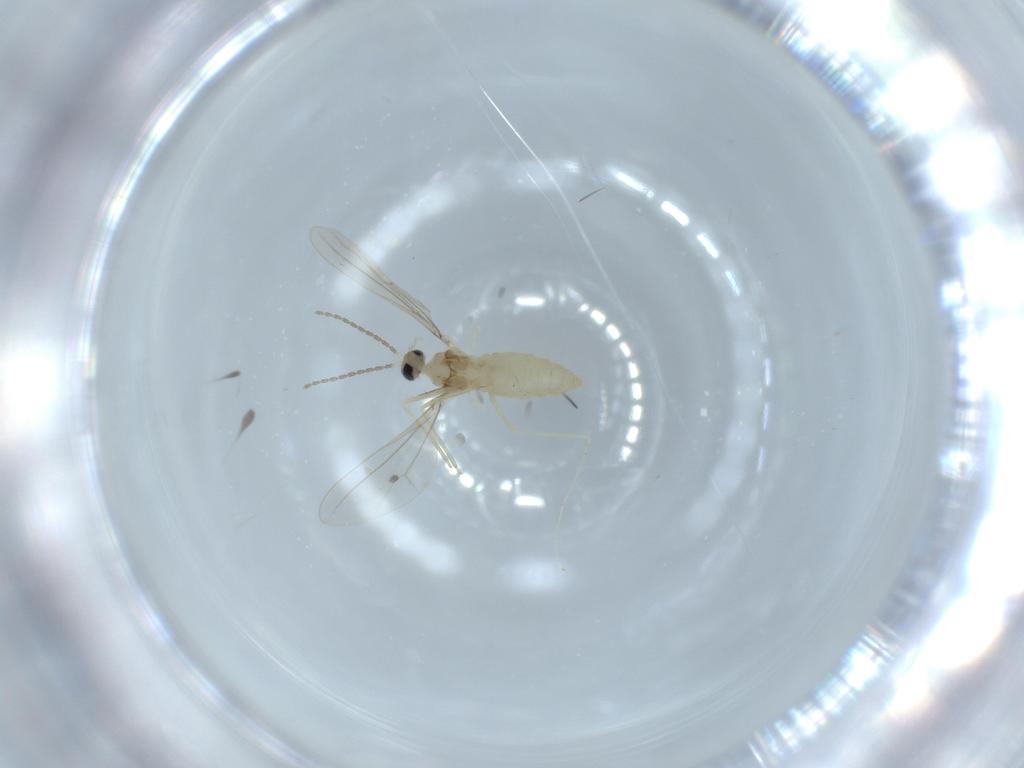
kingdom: Animalia
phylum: Arthropoda
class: Insecta
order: Diptera
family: Cecidomyiidae
